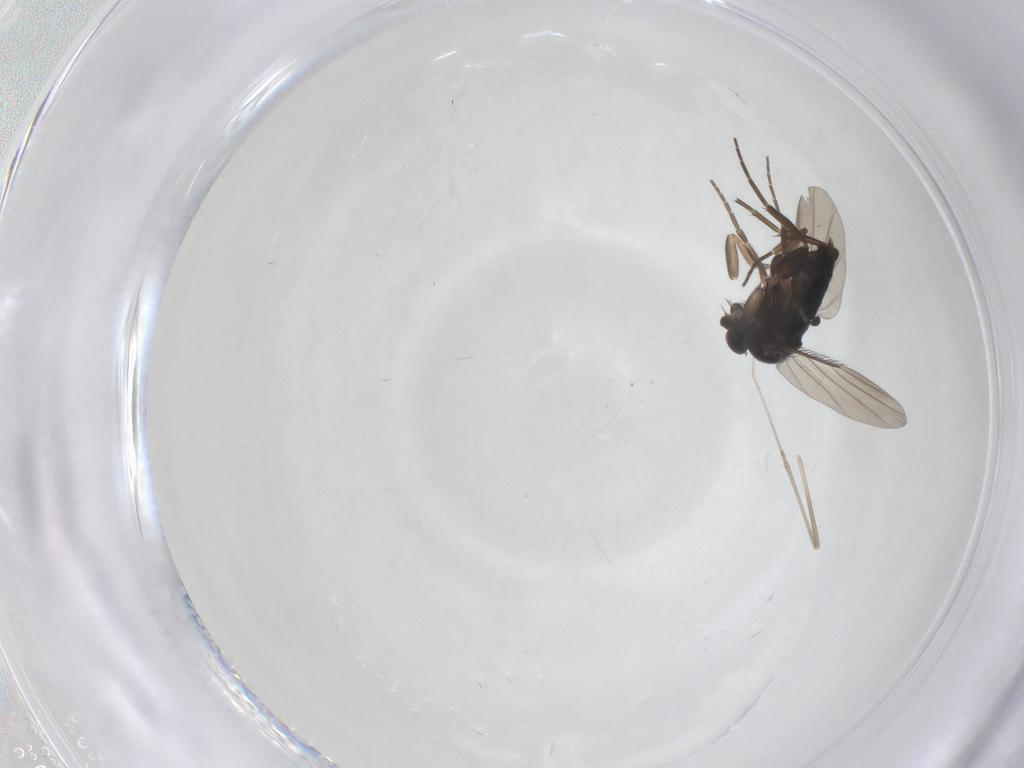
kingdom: Animalia
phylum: Arthropoda
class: Insecta
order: Diptera
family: Phoridae
